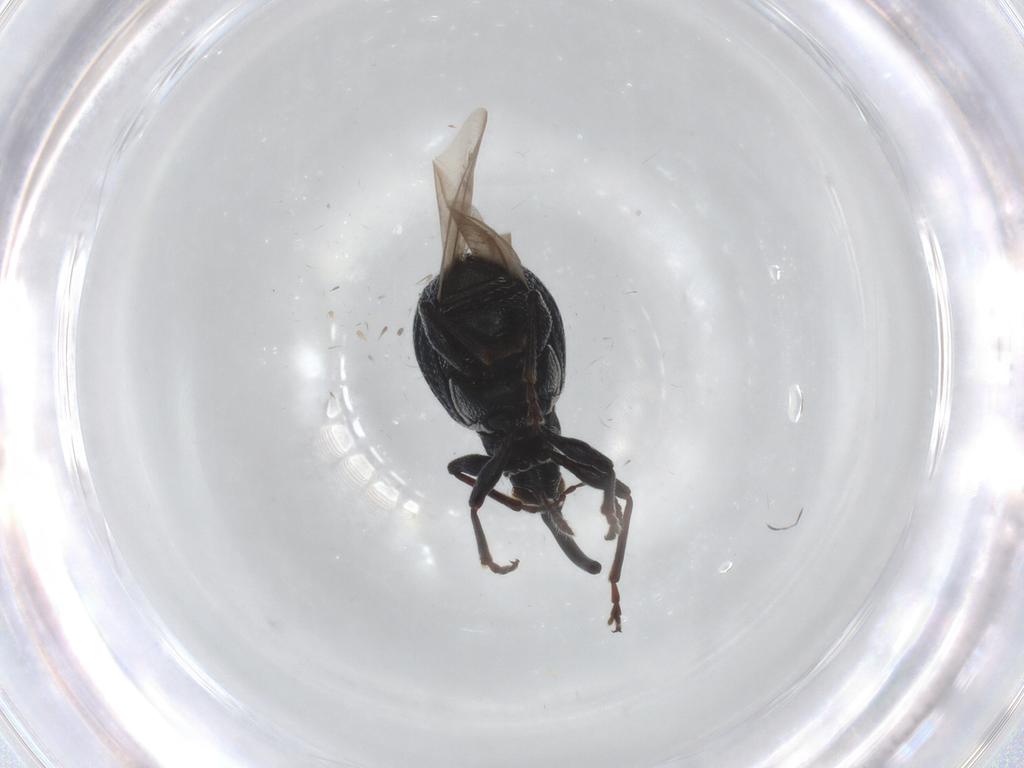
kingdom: Animalia
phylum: Arthropoda
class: Insecta
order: Coleoptera
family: Brentidae
